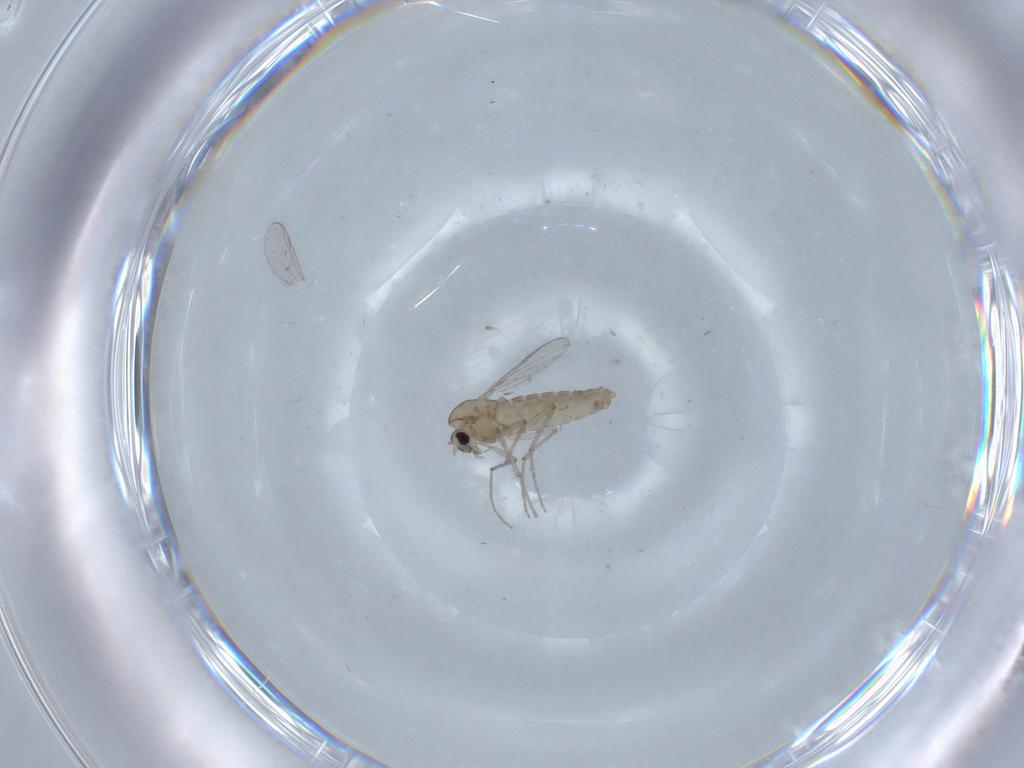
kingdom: Animalia
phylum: Arthropoda
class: Insecta
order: Diptera
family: Chironomidae
